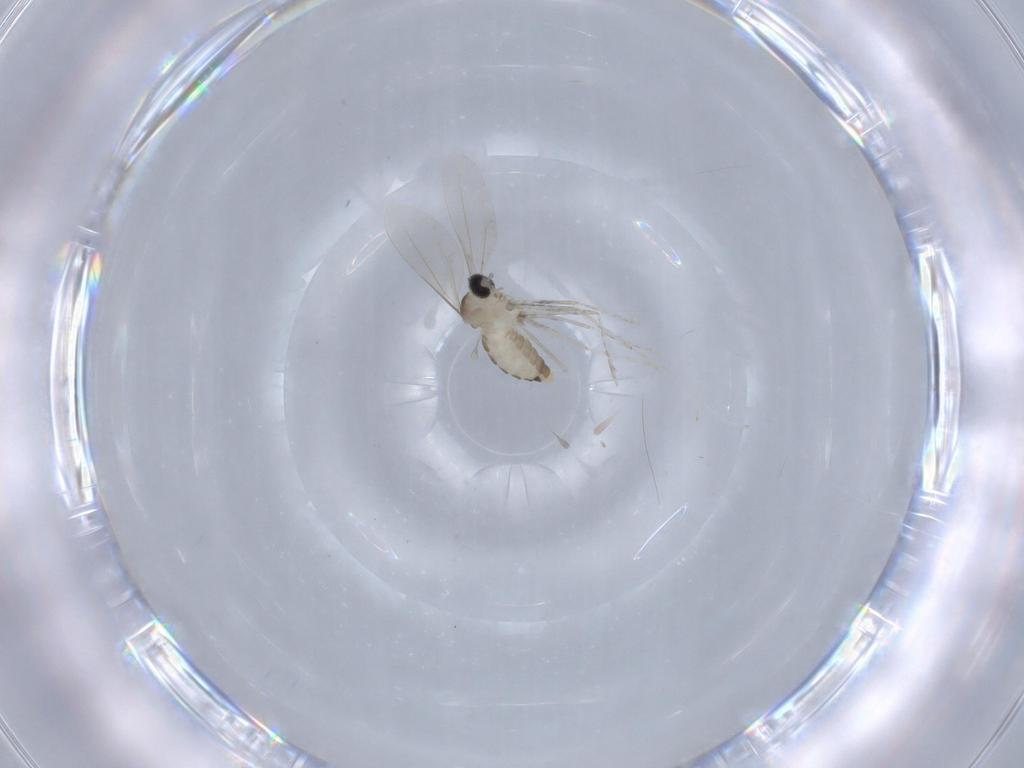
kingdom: Animalia
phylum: Arthropoda
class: Insecta
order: Diptera
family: Cecidomyiidae
